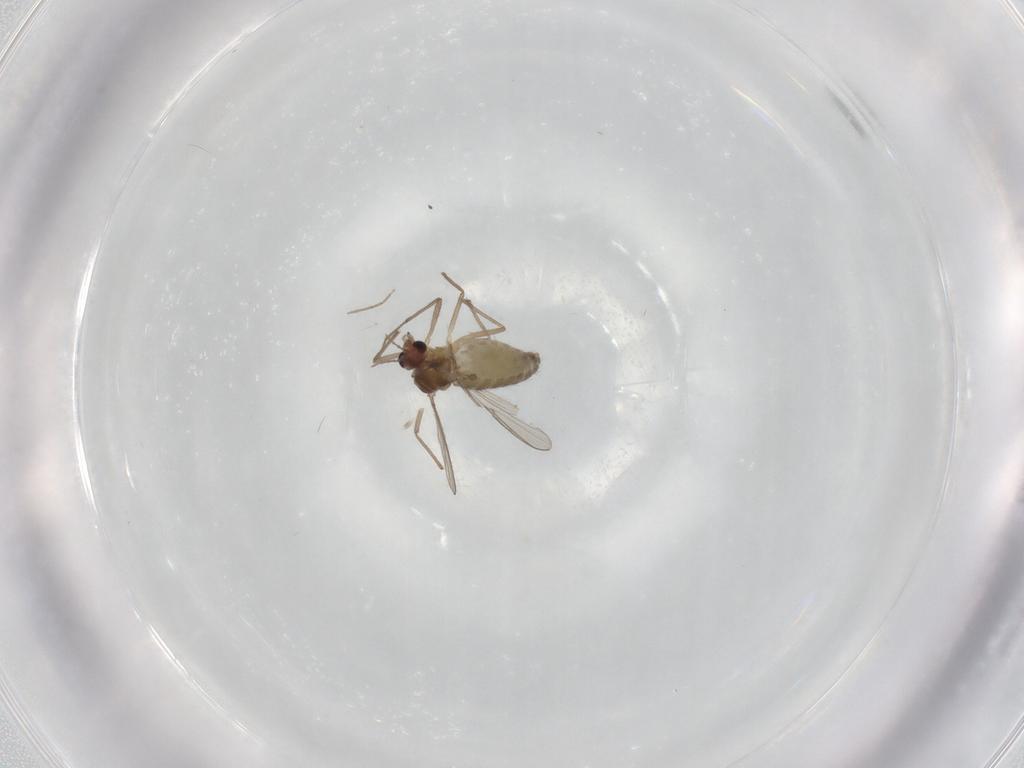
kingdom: Animalia
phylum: Arthropoda
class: Insecta
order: Diptera
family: Chironomidae
